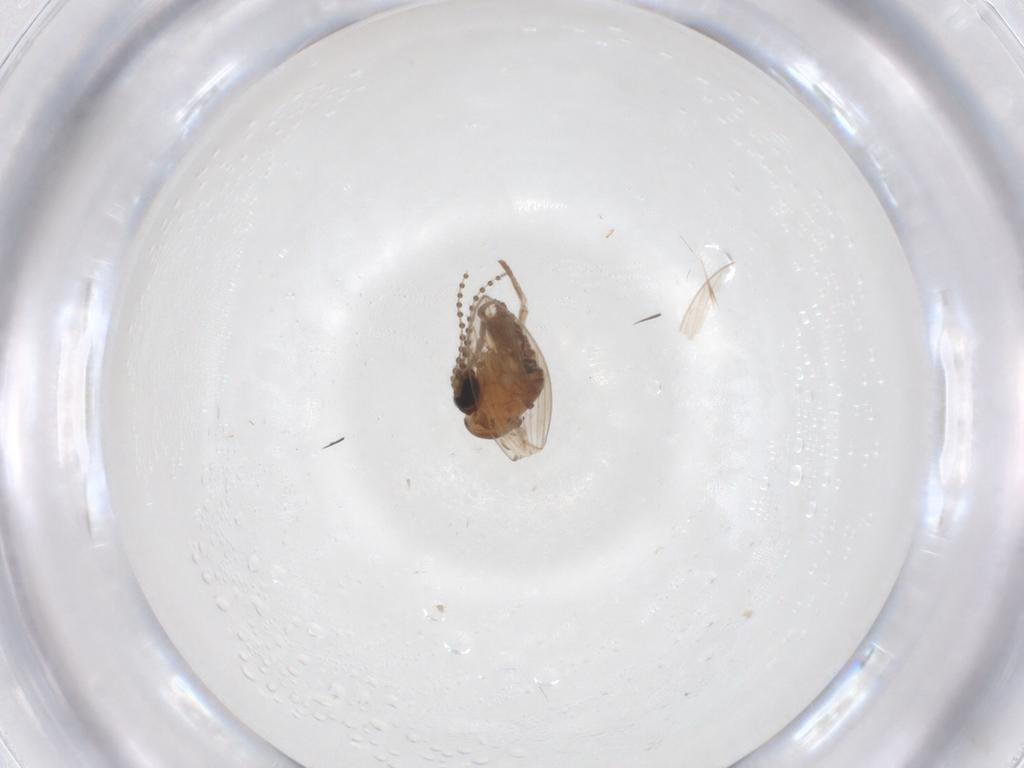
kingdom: Animalia
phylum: Arthropoda
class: Insecta
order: Diptera
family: Psychodidae
